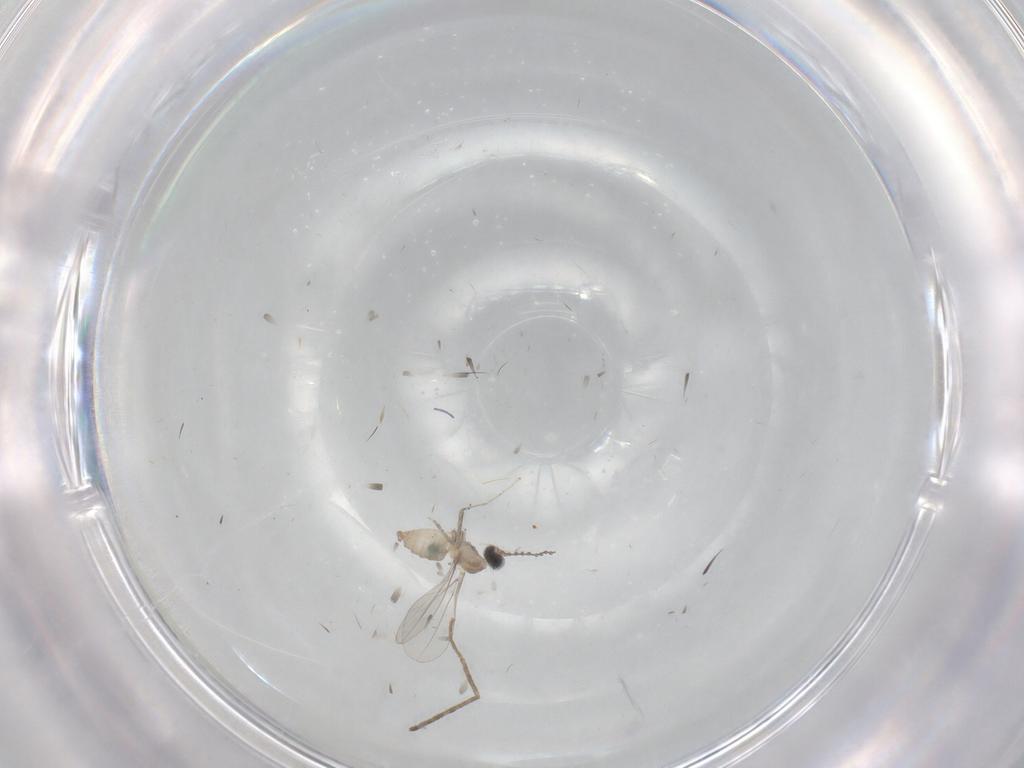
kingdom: Animalia
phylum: Arthropoda
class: Insecta
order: Diptera
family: Cecidomyiidae
